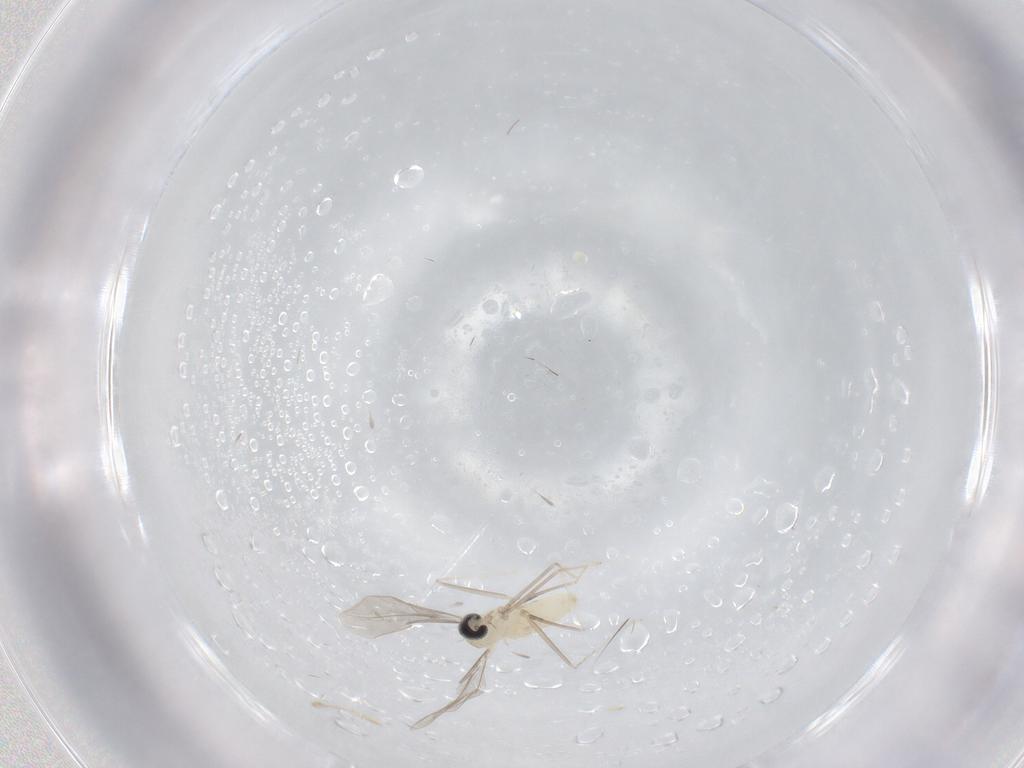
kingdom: Animalia
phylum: Arthropoda
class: Insecta
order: Diptera
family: Cecidomyiidae
